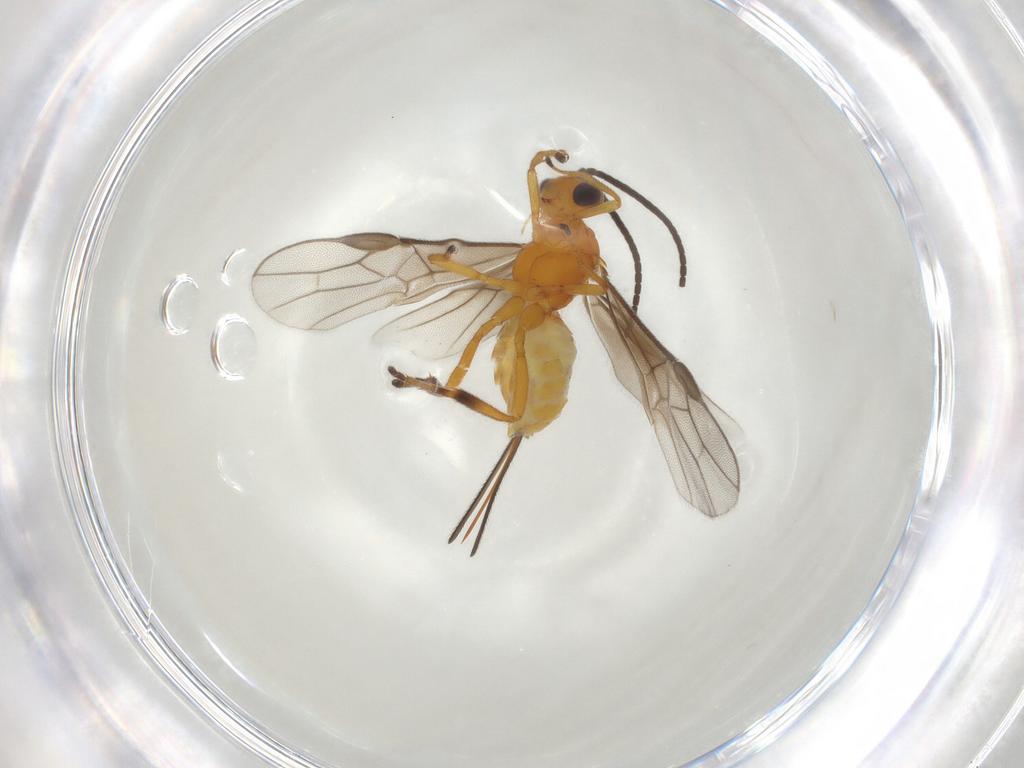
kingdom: Animalia
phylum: Arthropoda
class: Insecta
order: Hymenoptera
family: Braconidae
